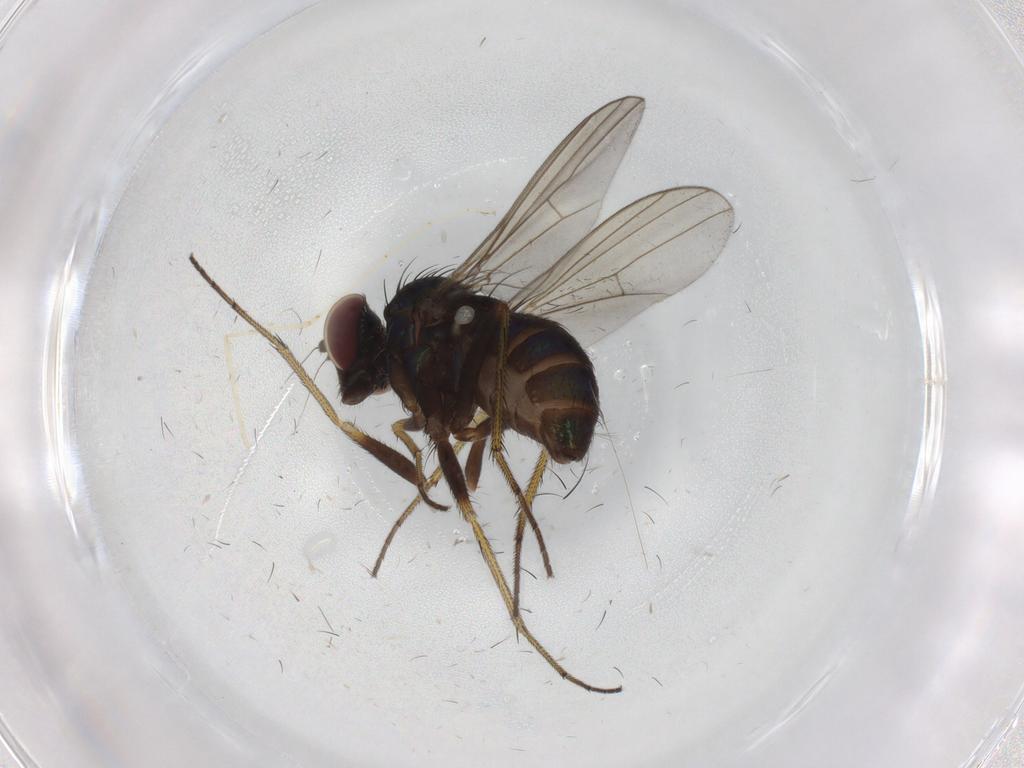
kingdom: Animalia
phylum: Arthropoda
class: Insecta
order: Diptera
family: Dolichopodidae
